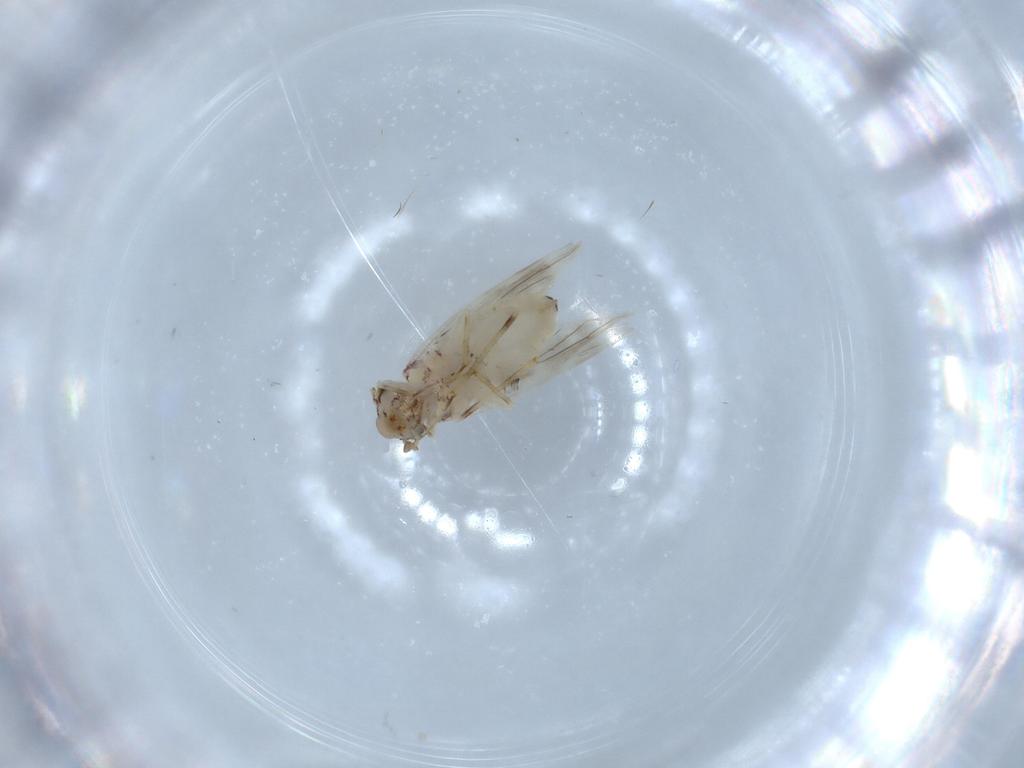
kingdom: Animalia
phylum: Arthropoda
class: Insecta
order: Psocodea
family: Lepidopsocidae
